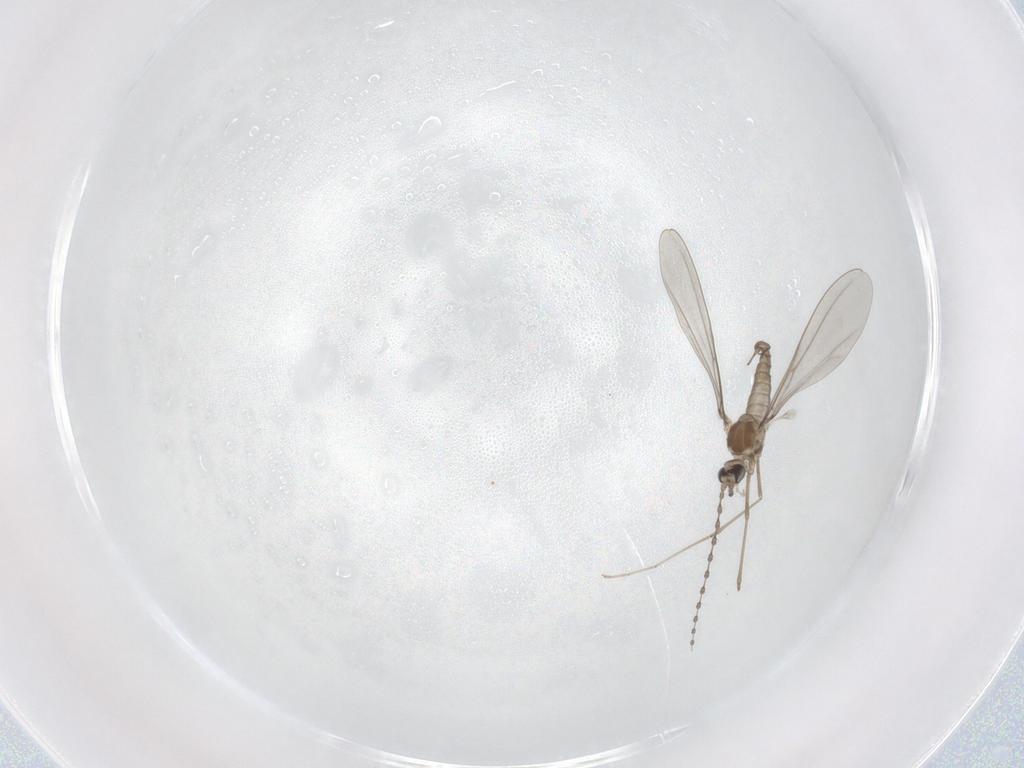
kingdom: Animalia
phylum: Arthropoda
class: Insecta
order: Diptera
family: Cecidomyiidae
